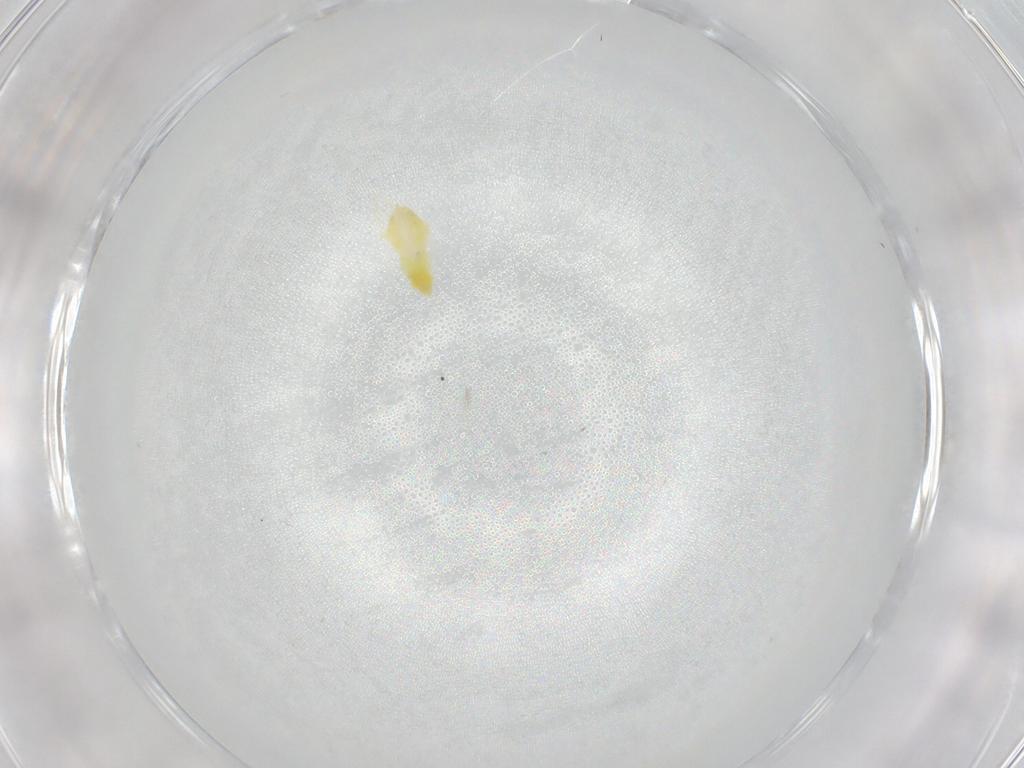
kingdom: Animalia
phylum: Arthropoda
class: Insecta
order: Hemiptera
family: Aleyrodidae
